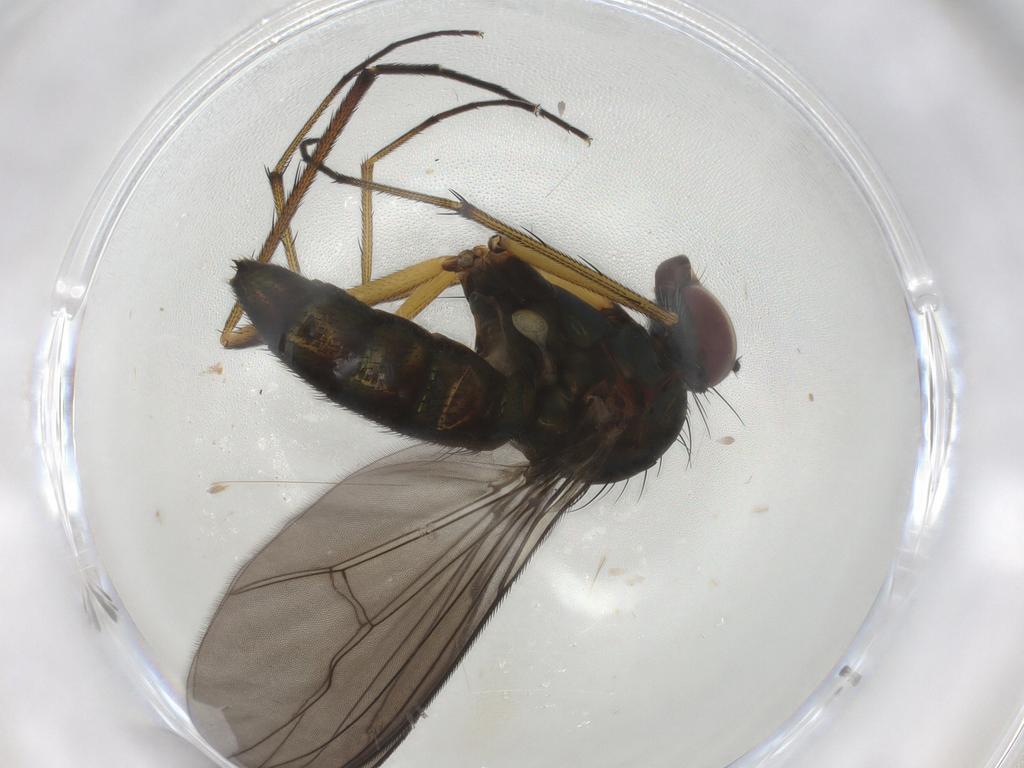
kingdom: Animalia
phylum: Arthropoda
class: Insecta
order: Diptera
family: Dolichopodidae
